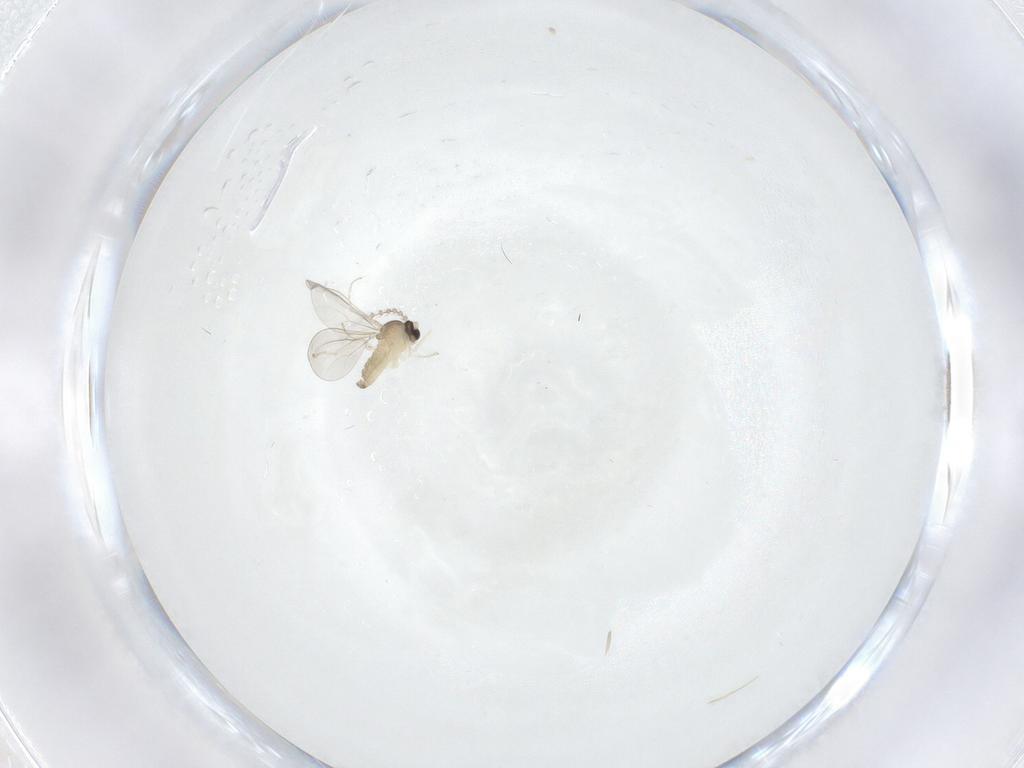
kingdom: Animalia
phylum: Arthropoda
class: Insecta
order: Diptera
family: Cecidomyiidae
